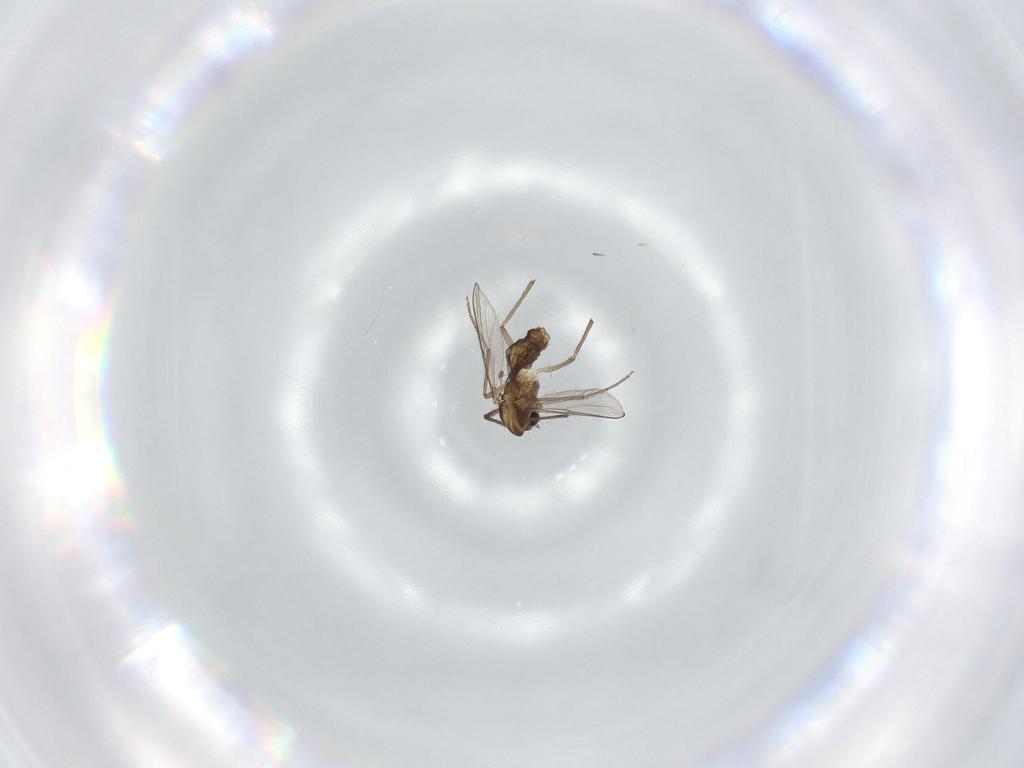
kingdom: Animalia
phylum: Arthropoda
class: Insecta
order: Diptera
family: Chironomidae
